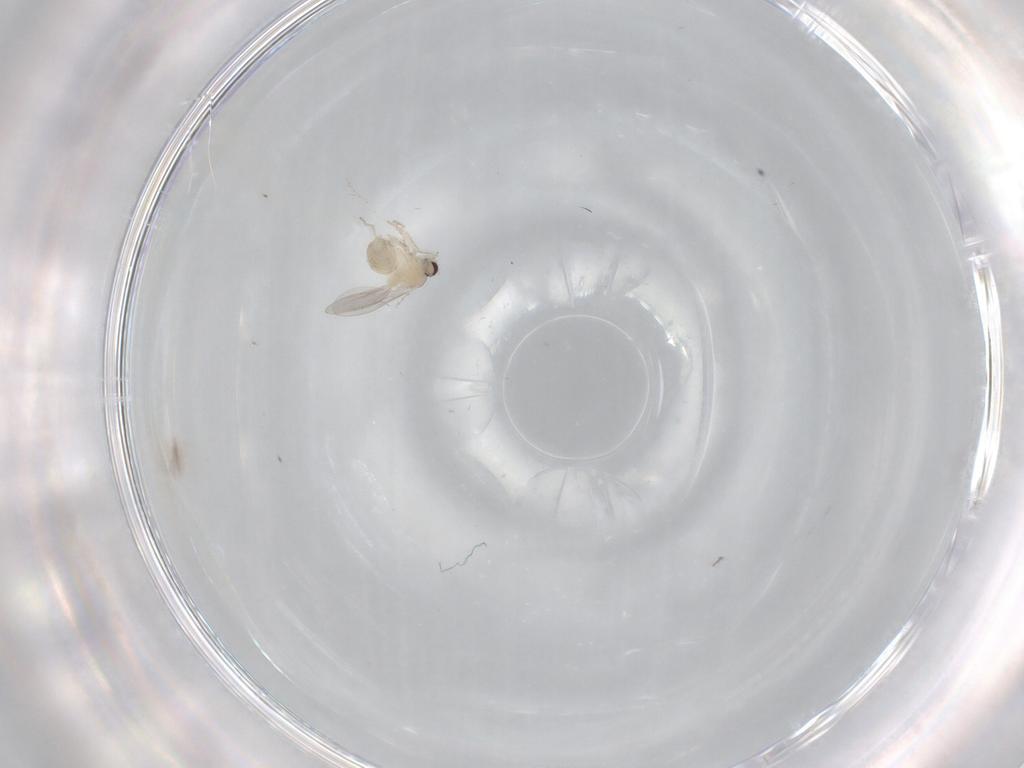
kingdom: Animalia
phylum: Arthropoda
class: Insecta
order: Diptera
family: Cecidomyiidae
